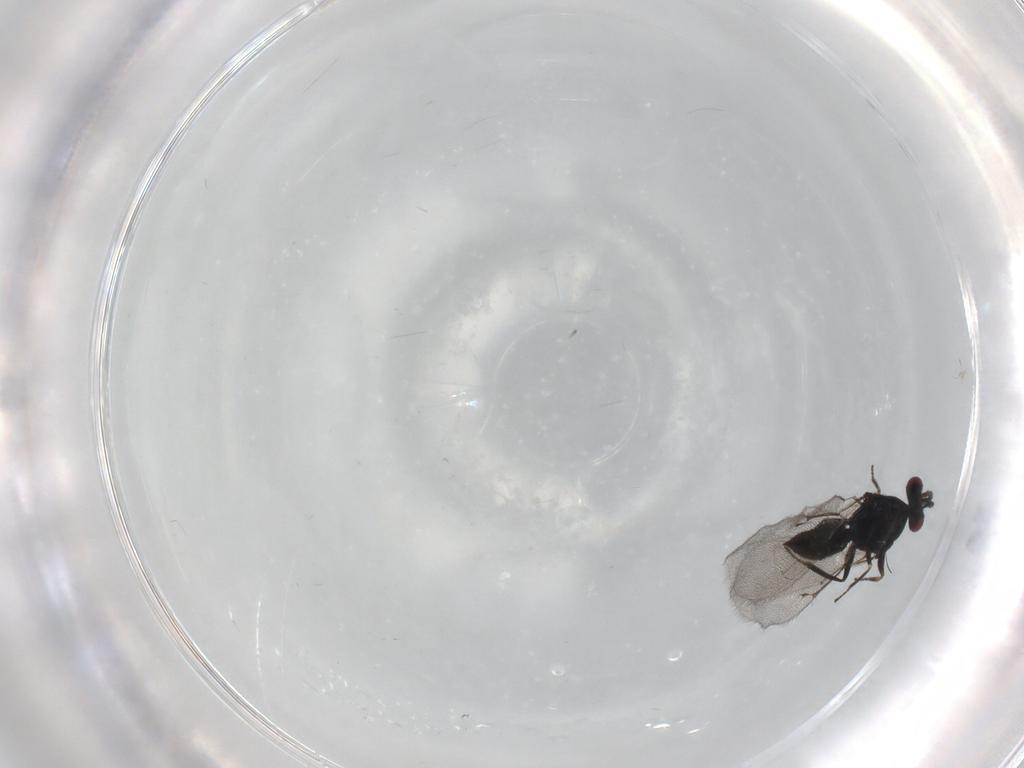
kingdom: Animalia
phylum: Arthropoda
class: Insecta
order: Hymenoptera
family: Eulophidae
